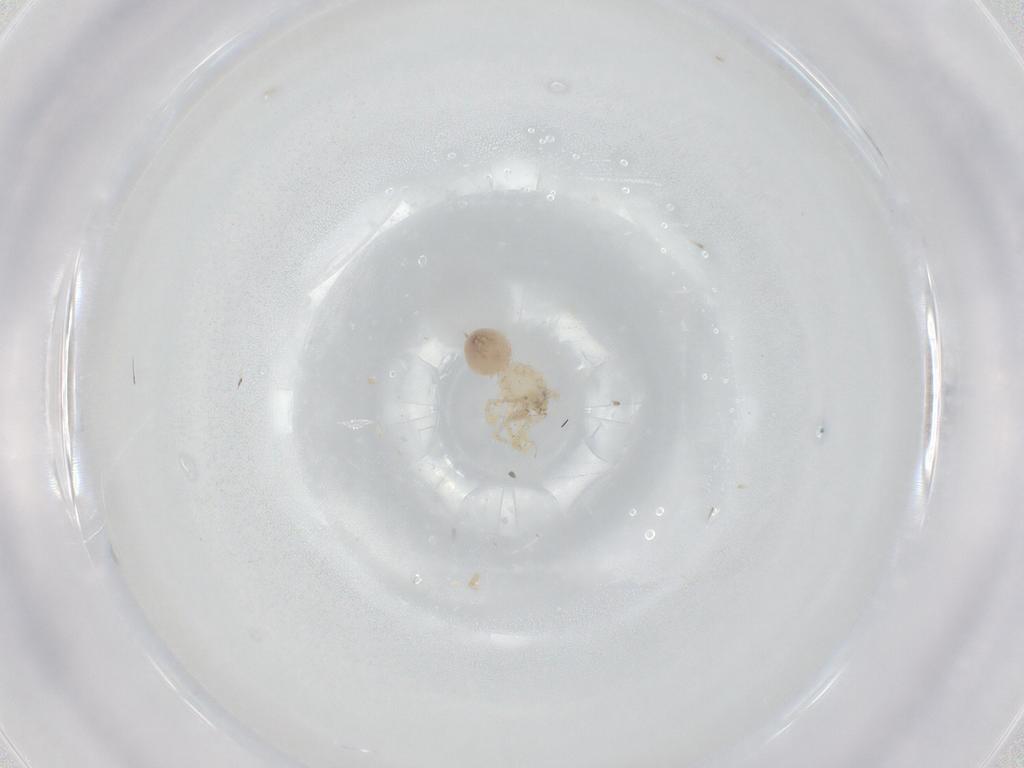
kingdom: Animalia
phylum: Arthropoda
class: Arachnida
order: Araneae
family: Oonopidae
